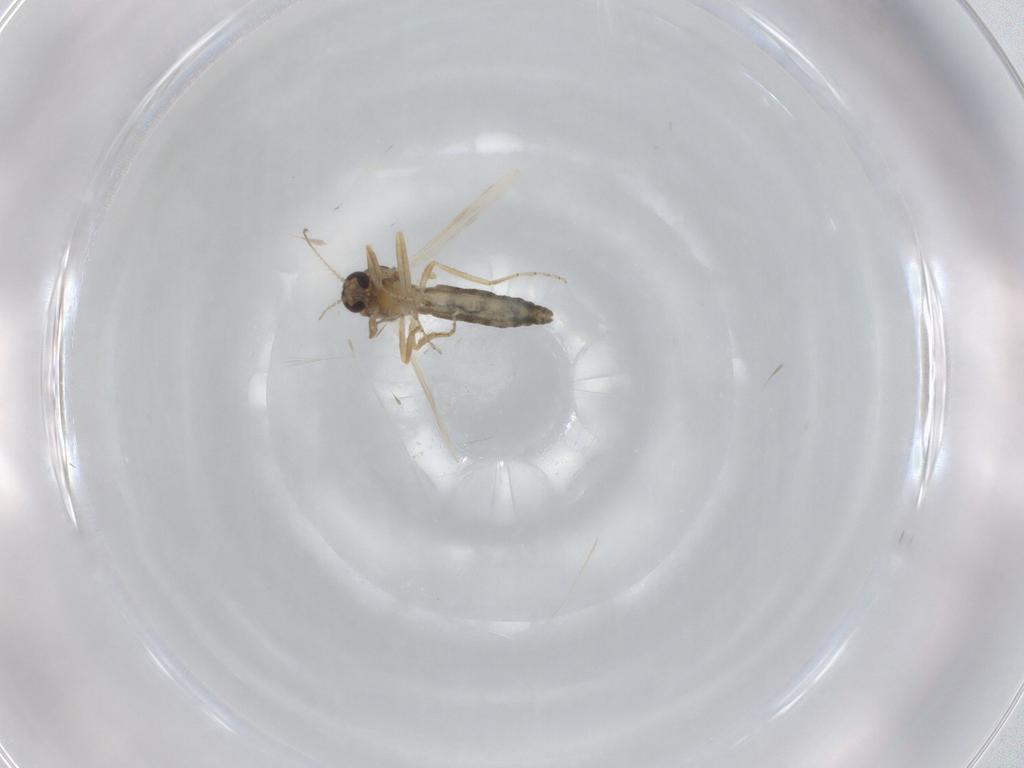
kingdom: Animalia
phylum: Arthropoda
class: Insecta
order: Diptera
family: Ceratopogonidae
